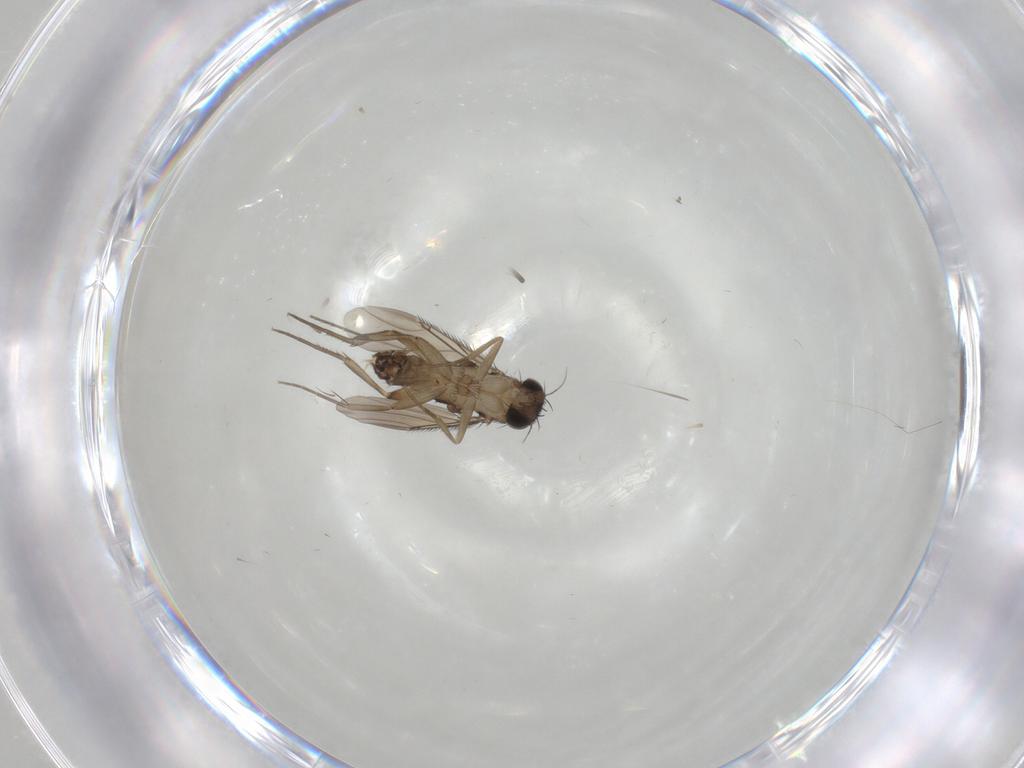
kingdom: Animalia
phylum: Arthropoda
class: Insecta
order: Diptera
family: Phoridae
